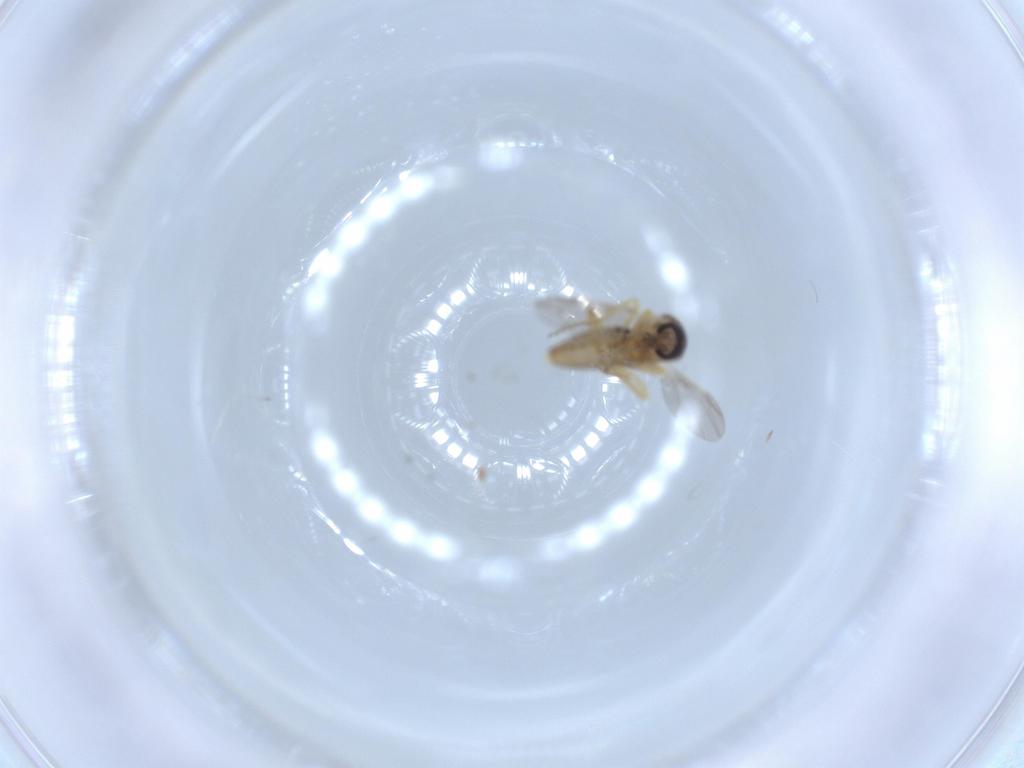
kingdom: Animalia
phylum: Arthropoda
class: Insecta
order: Diptera
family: Ceratopogonidae
